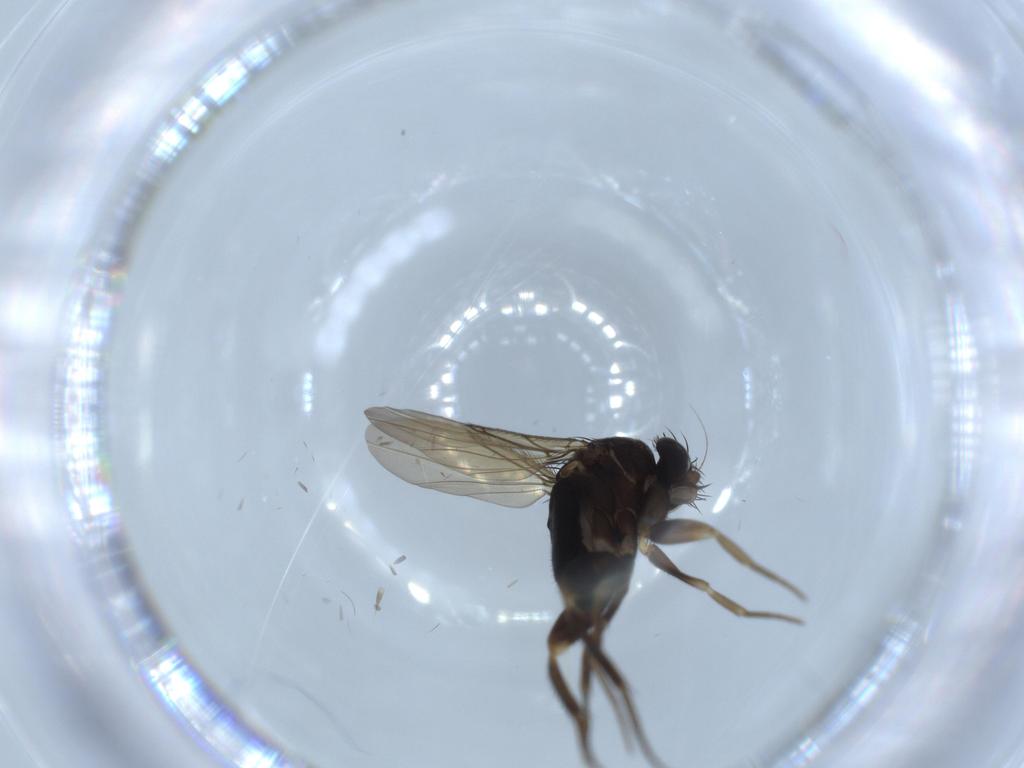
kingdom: Animalia
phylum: Arthropoda
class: Insecta
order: Diptera
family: Phoridae
